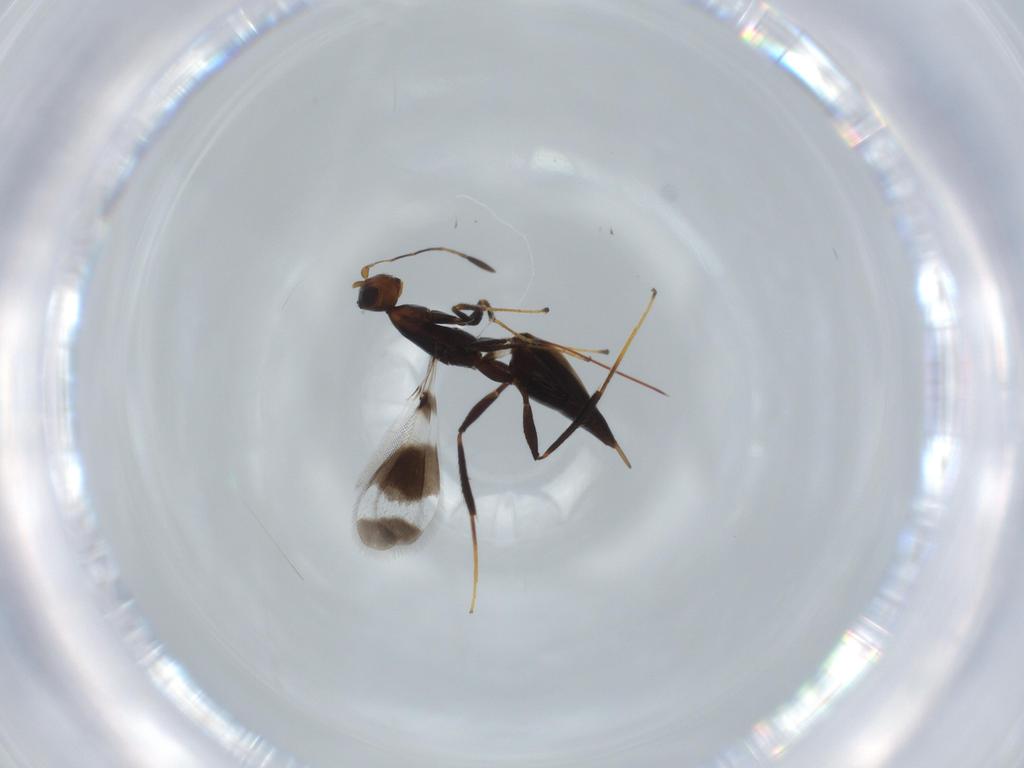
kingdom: Animalia
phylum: Arthropoda
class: Insecta
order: Hymenoptera
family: Mymaridae
